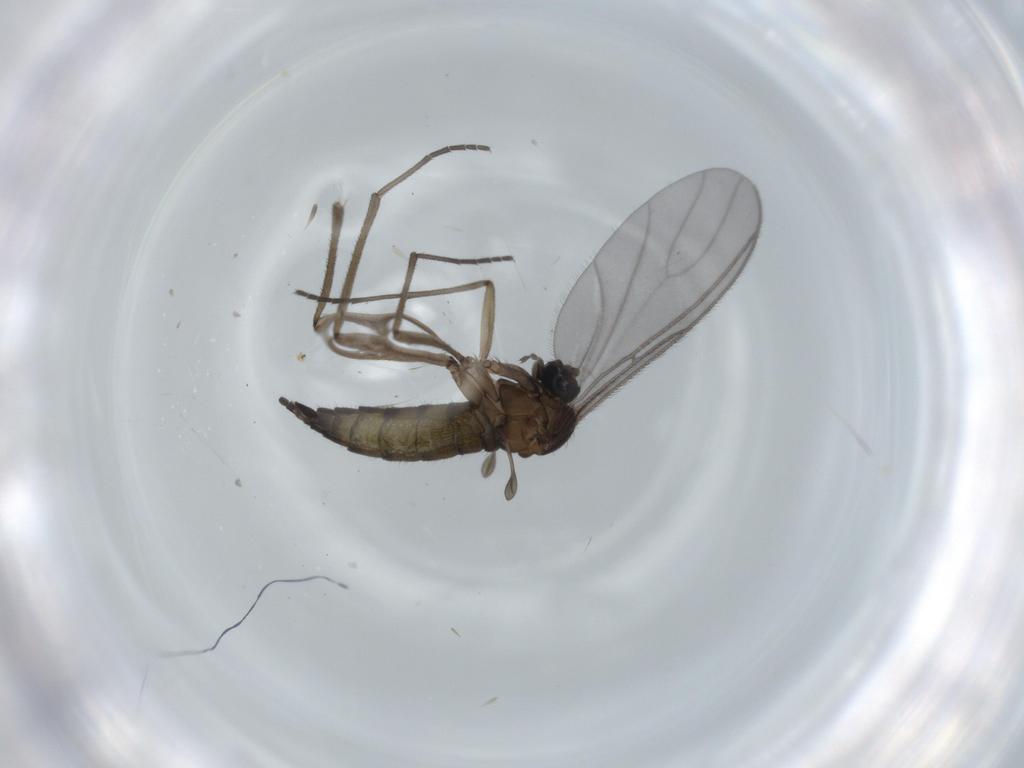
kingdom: Animalia
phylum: Arthropoda
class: Insecta
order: Diptera
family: Sciaridae
